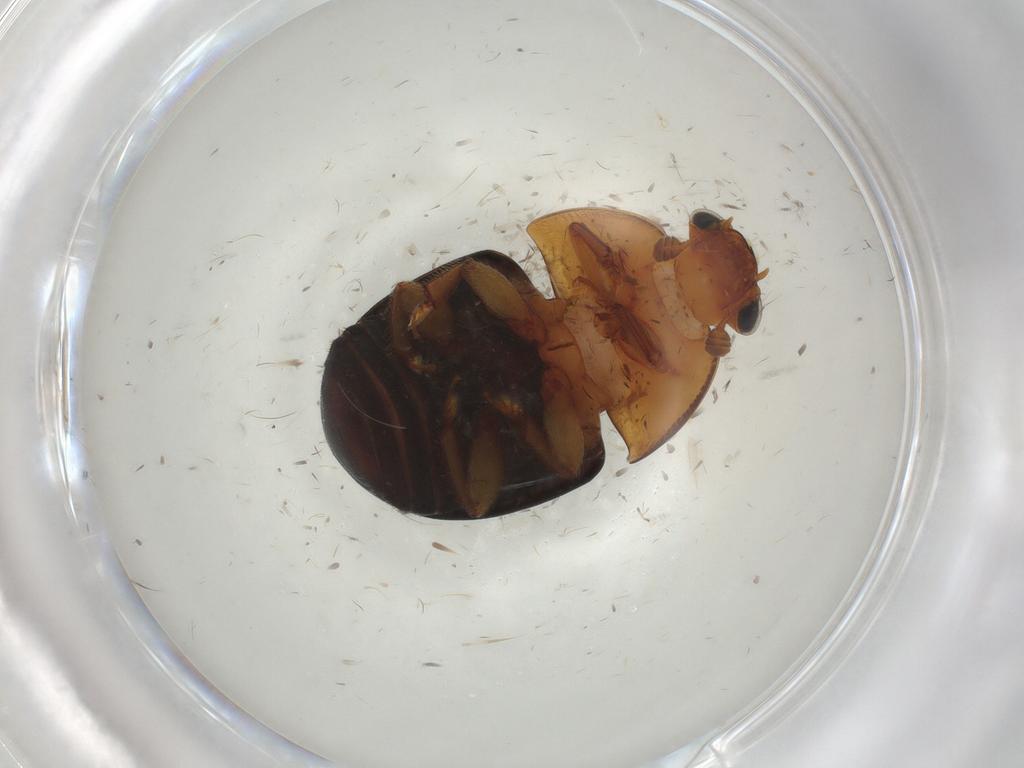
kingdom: Animalia
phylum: Arthropoda
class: Insecta
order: Coleoptera
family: Nitidulidae
